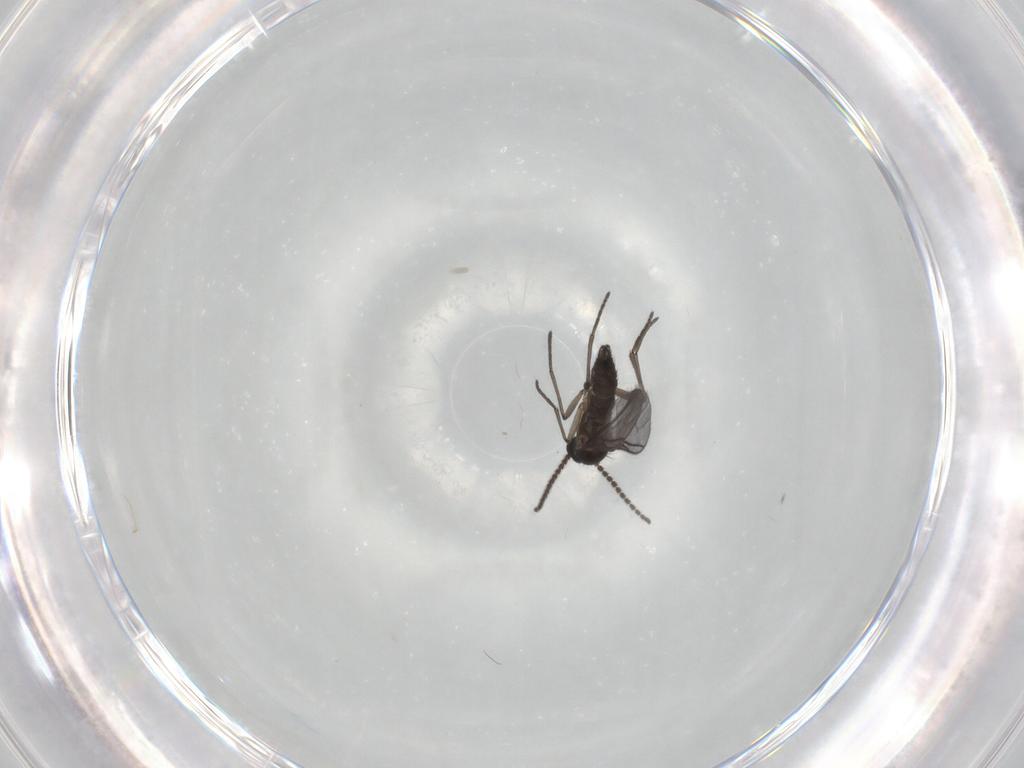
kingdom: Animalia
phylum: Arthropoda
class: Insecta
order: Diptera
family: Chironomidae
